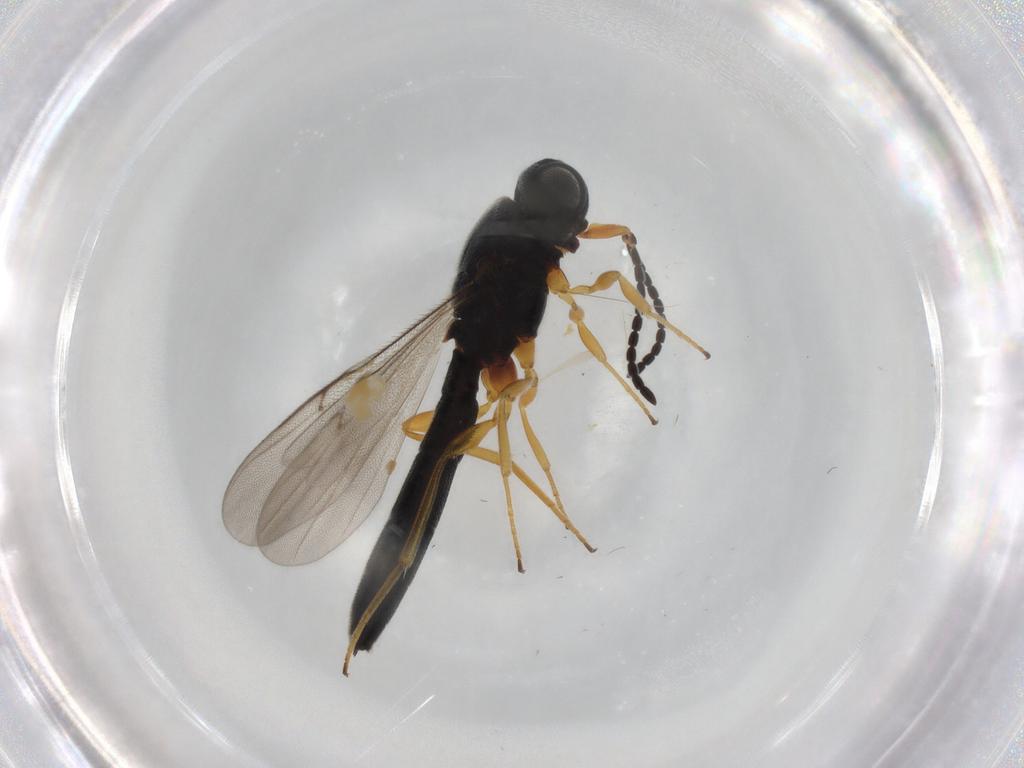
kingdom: Animalia
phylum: Arthropoda
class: Insecta
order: Hymenoptera
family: Scelionidae
